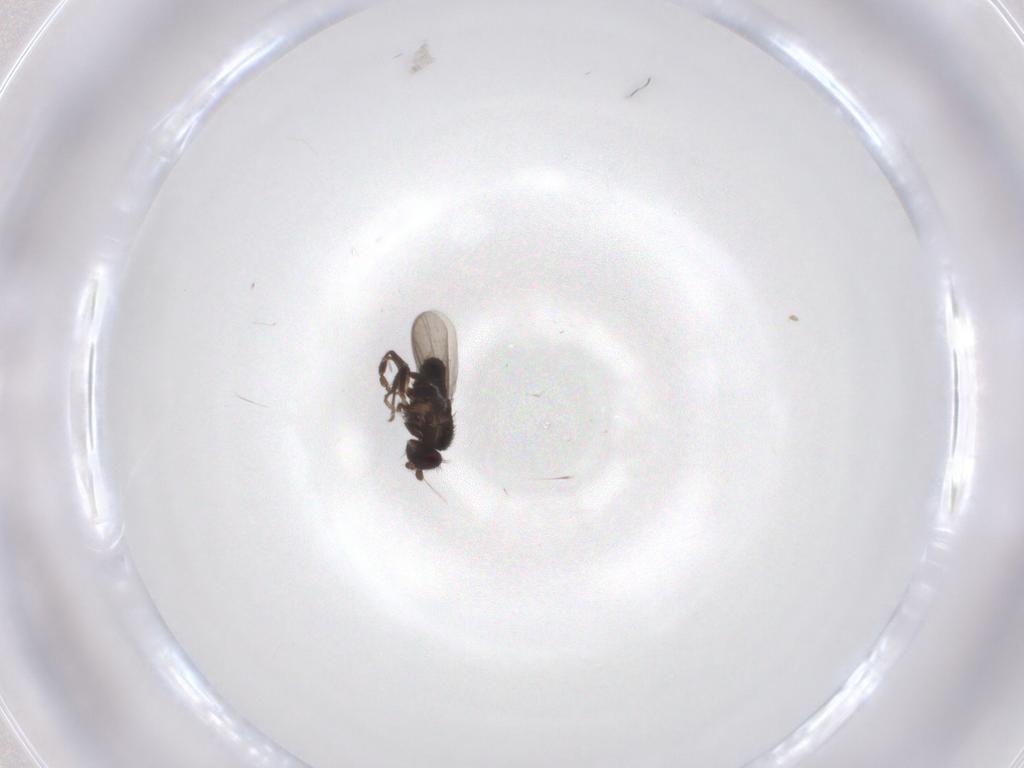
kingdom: Animalia
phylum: Arthropoda
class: Insecta
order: Diptera
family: Sphaeroceridae
